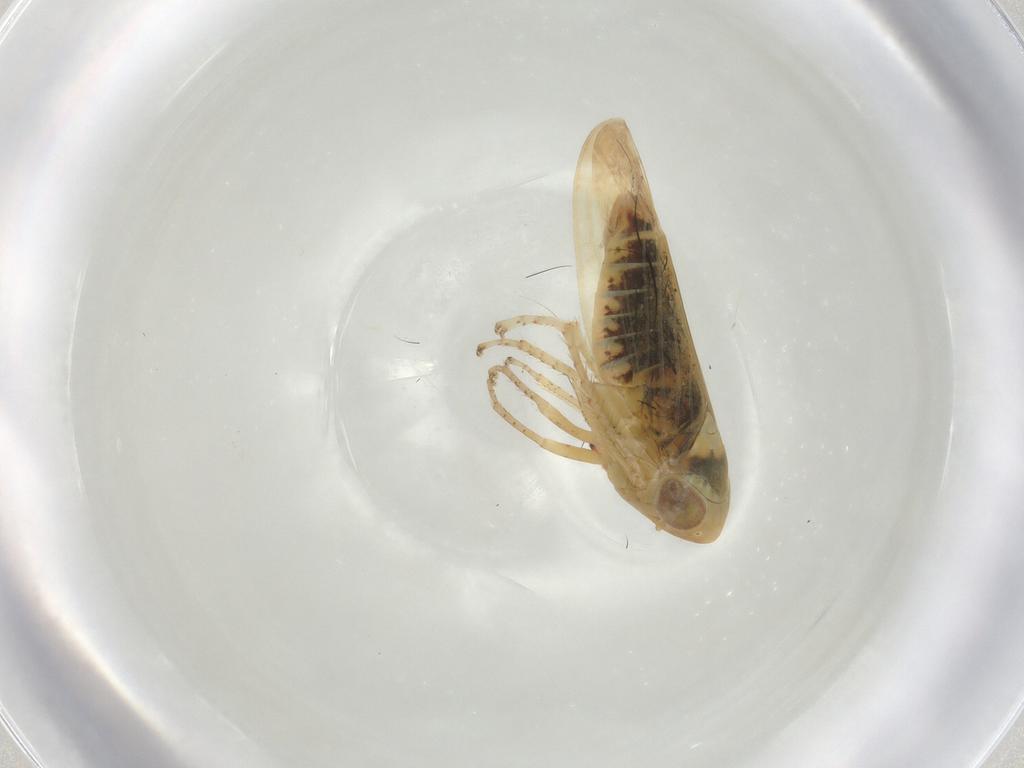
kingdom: Animalia
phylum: Arthropoda
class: Insecta
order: Hemiptera
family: Cicadellidae
